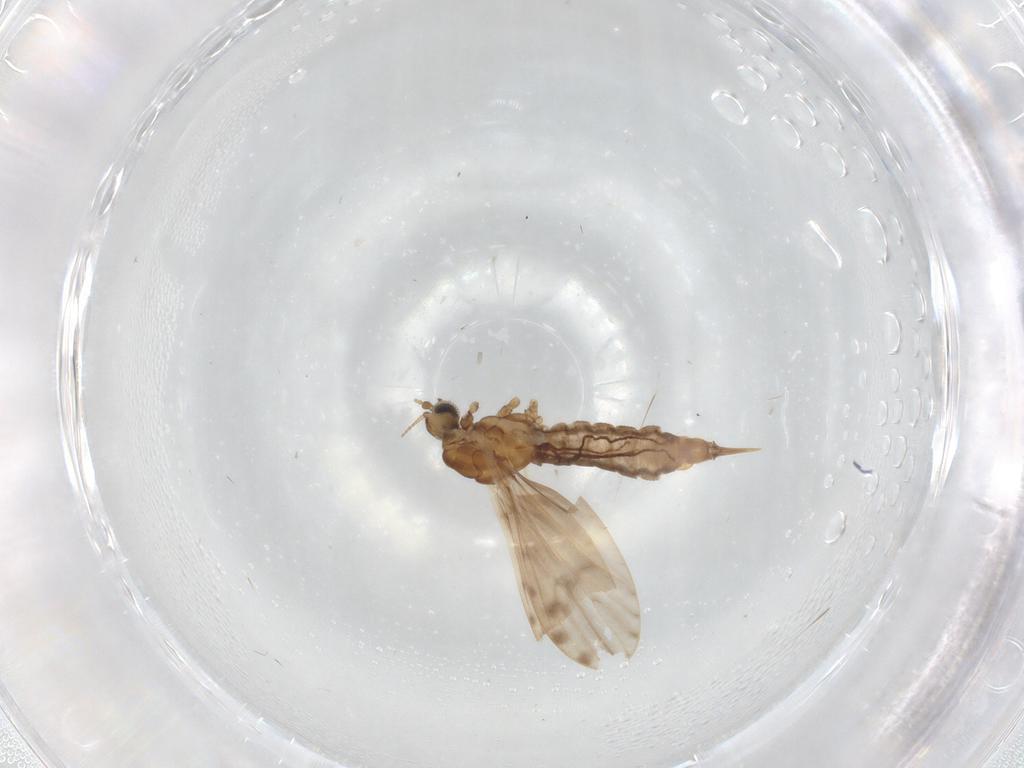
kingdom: Animalia
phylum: Arthropoda
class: Insecta
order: Diptera
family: Limoniidae
